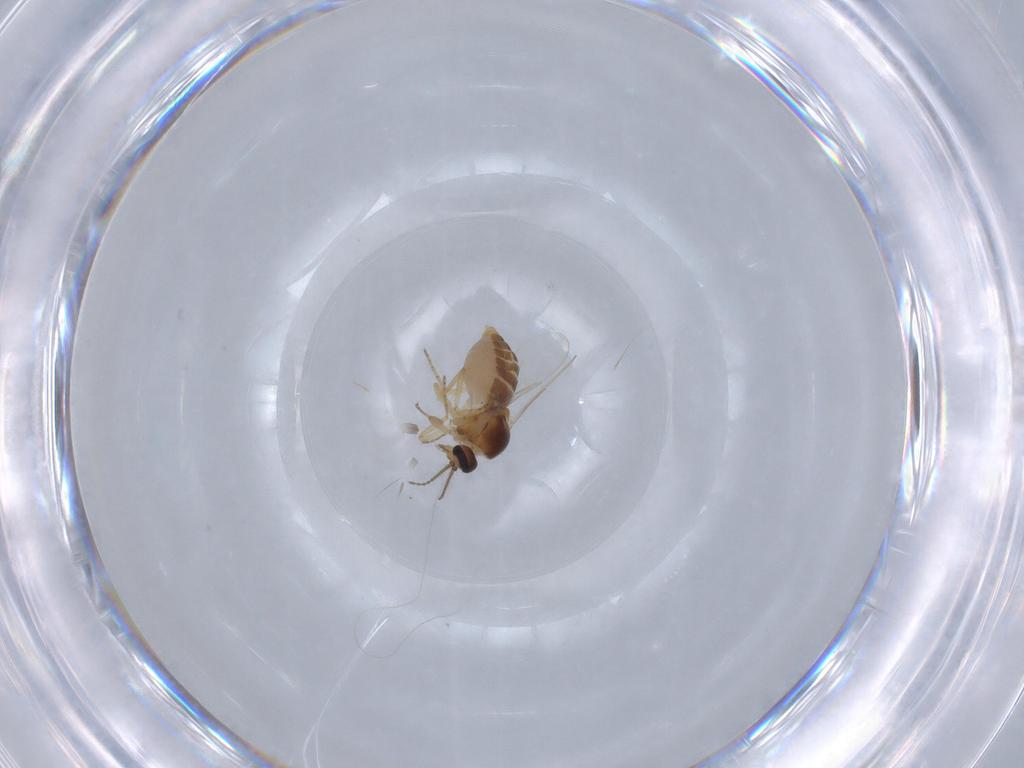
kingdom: Animalia
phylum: Arthropoda
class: Insecta
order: Diptera
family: Ceratopogonidae
